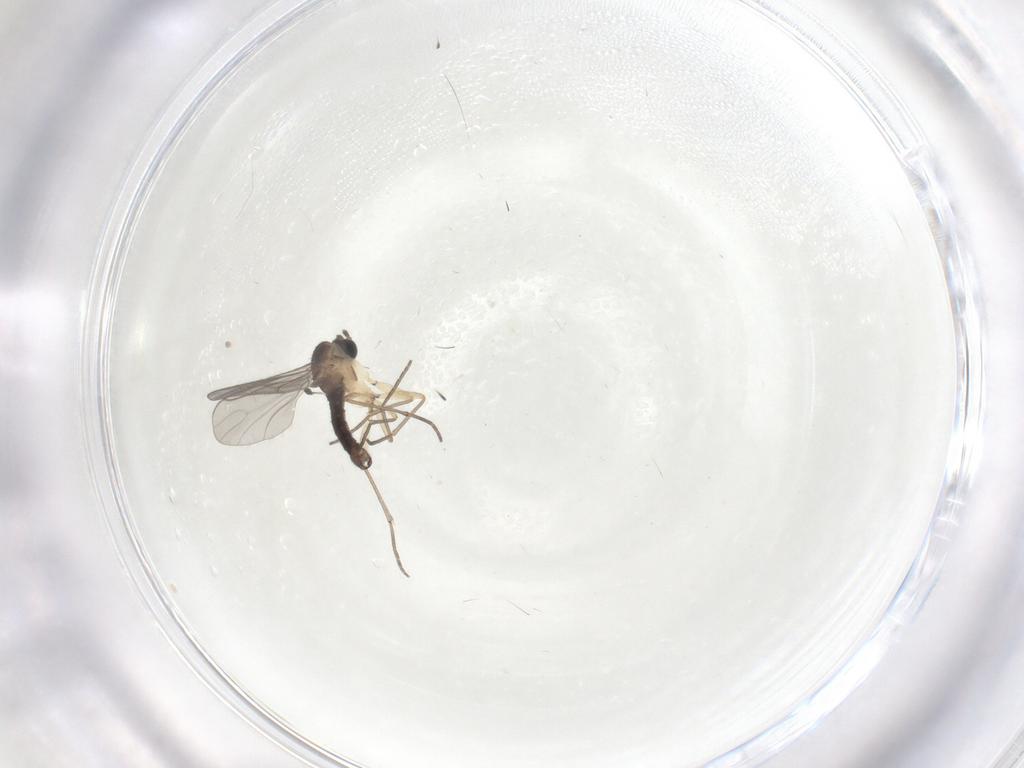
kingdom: Animalia
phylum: Arthropoda
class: Insecta
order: Diptera
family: Sciaridae
